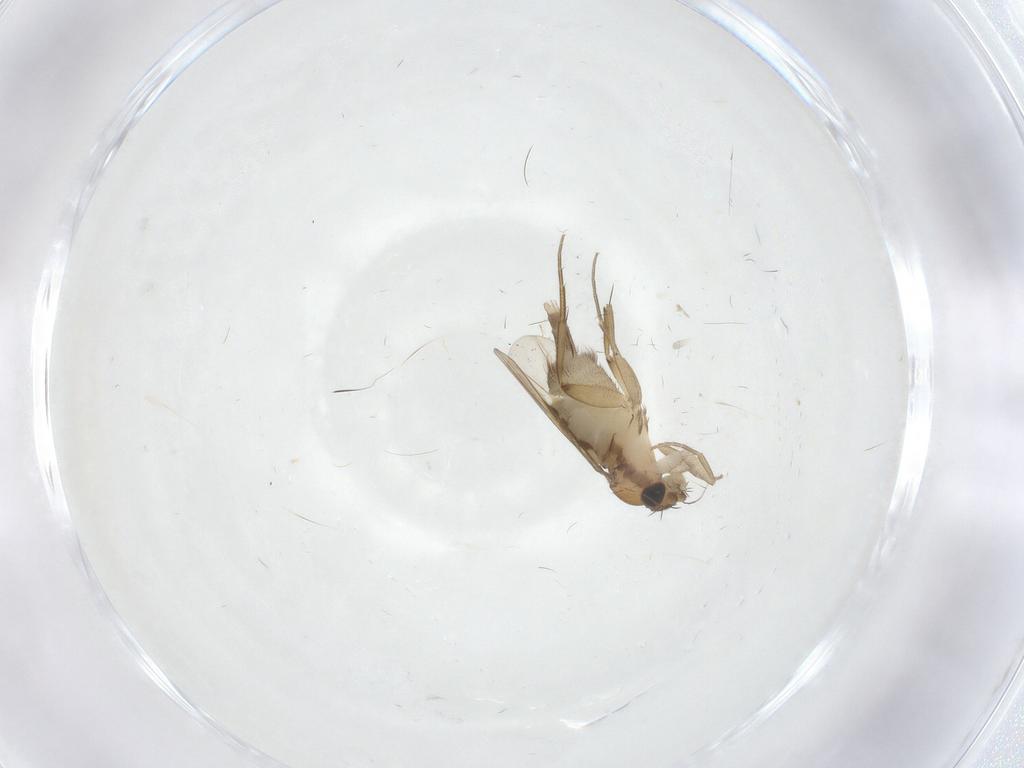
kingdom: Animalia
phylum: Arthropoda
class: Insecta
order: Diptera
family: Phoridae
